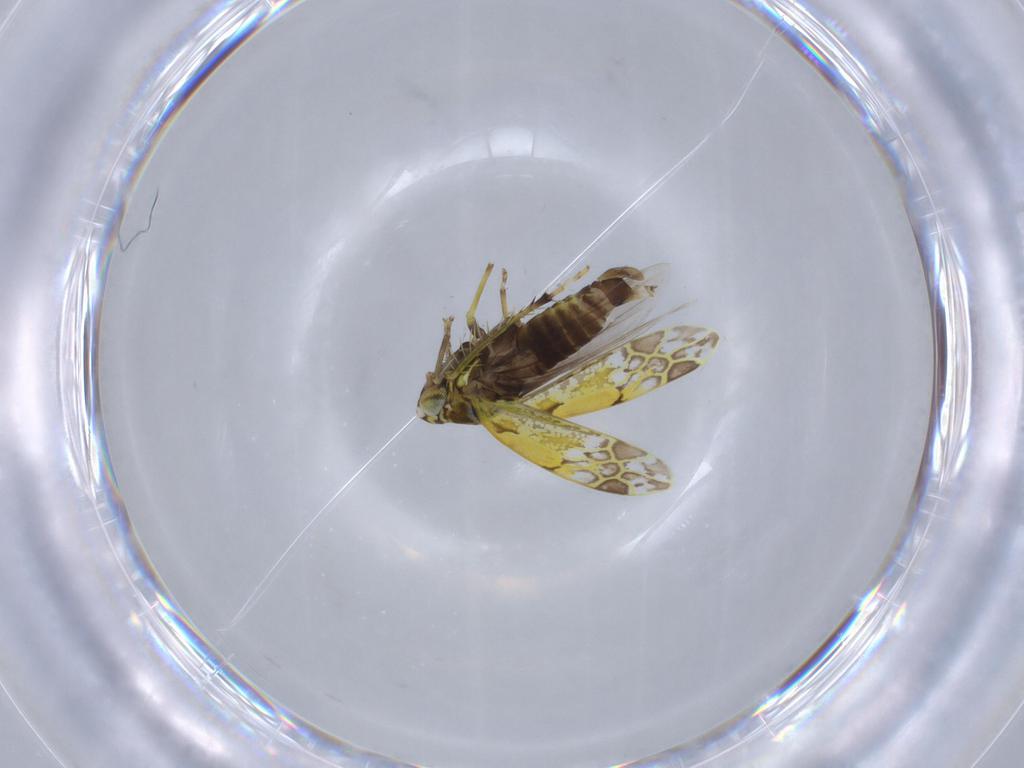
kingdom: Animalia
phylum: Arthropoda
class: Insecta
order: Hemiptera
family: Cicadellidae
